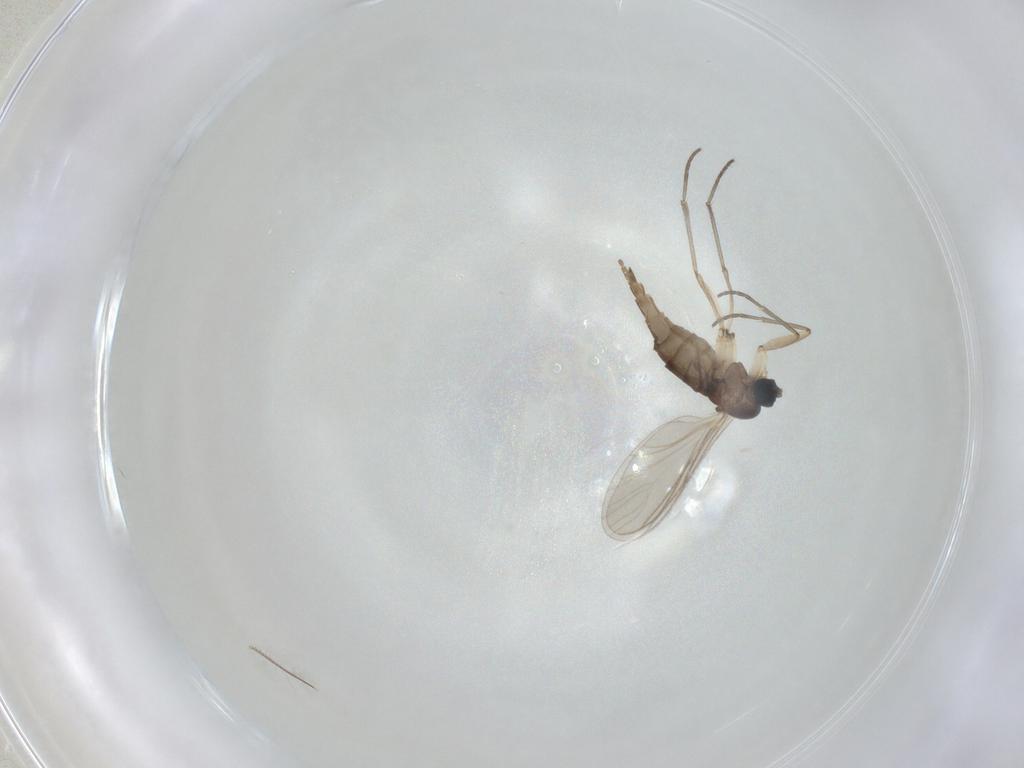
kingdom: Animalia
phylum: Arthropoda
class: Insecta
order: Diptera
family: Sciaridae
